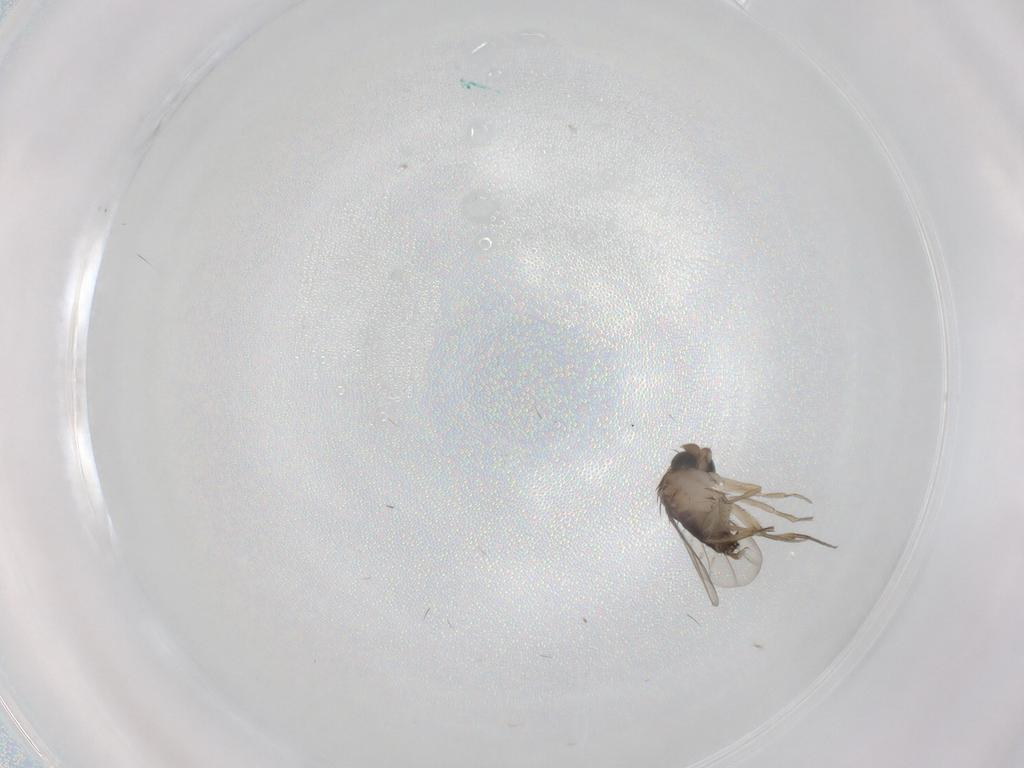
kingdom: Animalia
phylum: Arthropoda
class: Insecta
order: Diptera
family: Phoridae
